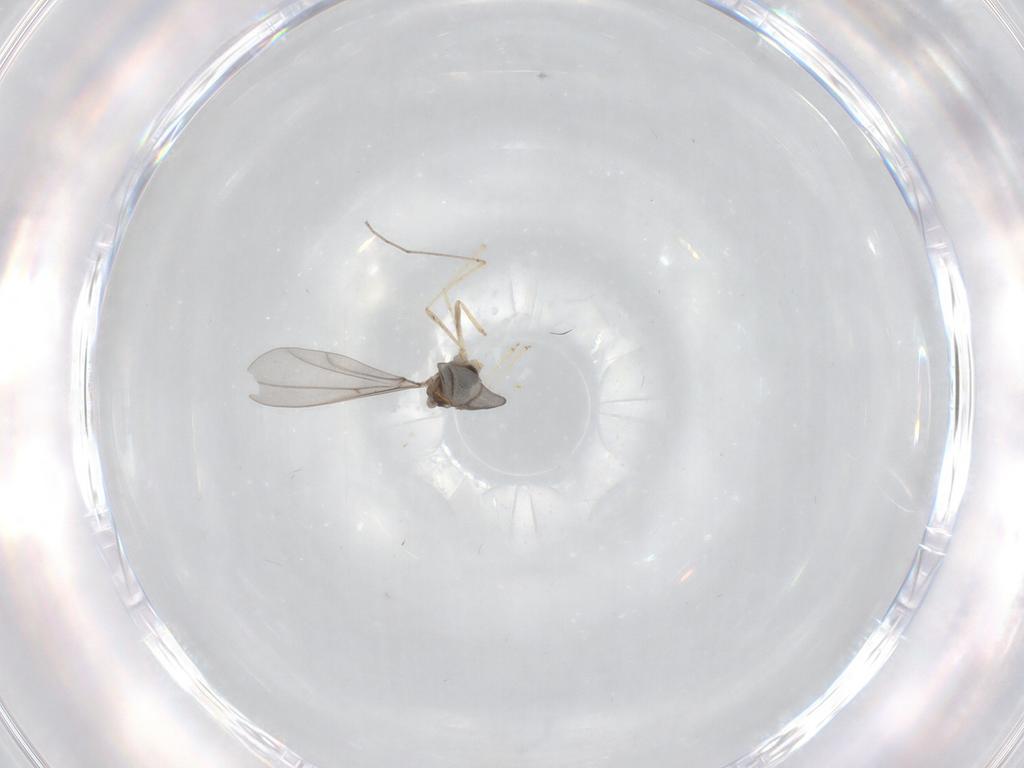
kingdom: Animalia
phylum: Arthropoda
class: Insecta
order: Diptera
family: Cecidomyiidae
